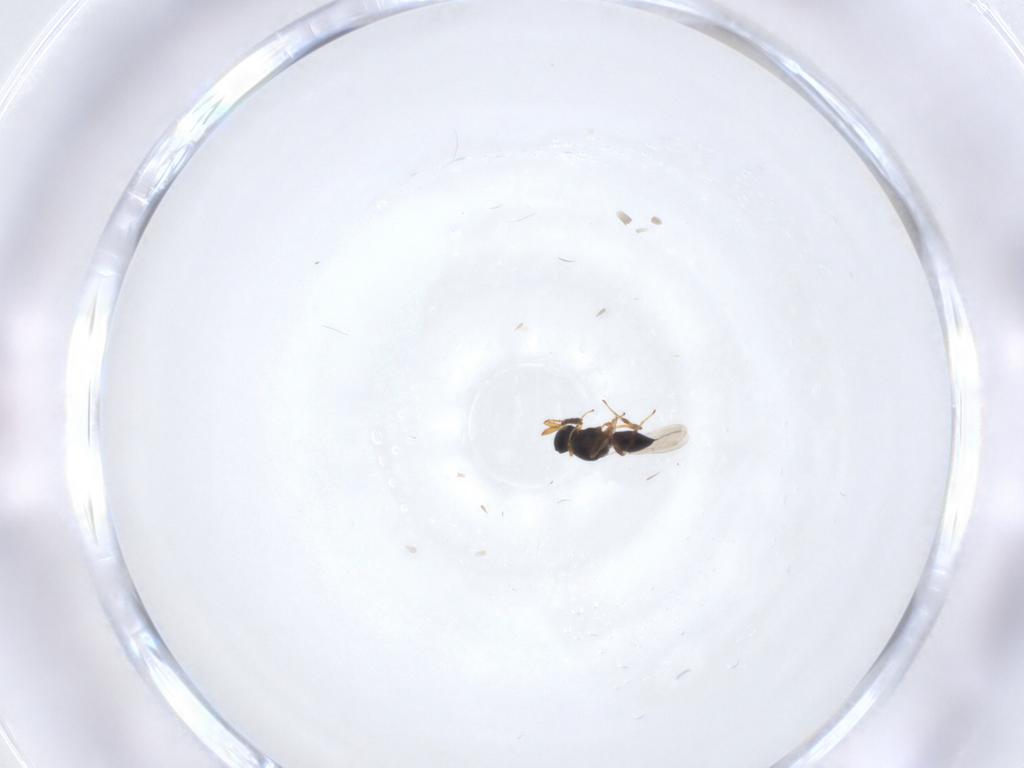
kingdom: Animalia
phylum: Arthropoda
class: Insecta
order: Hymenoptera
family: Platygastridae
